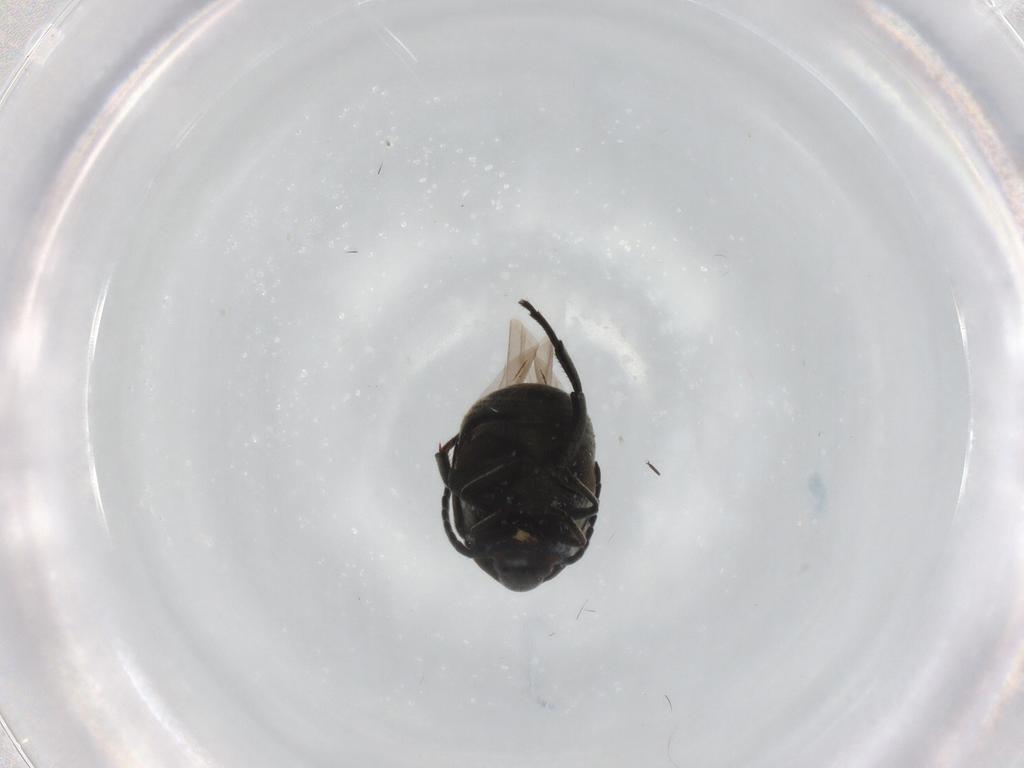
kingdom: Animalia
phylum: Arthropoda
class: Insecta
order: Coleoptera
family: Chrysomelidae
